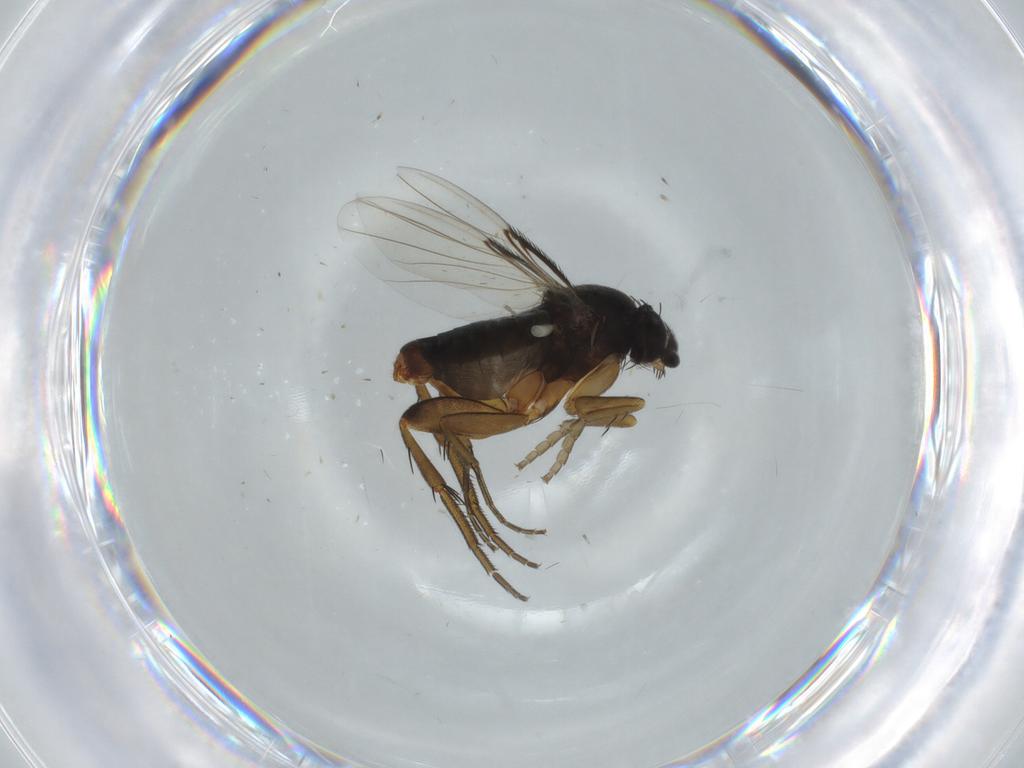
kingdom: Animalia
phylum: Arthropoda
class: Insecta
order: Diptera
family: Phoridae
